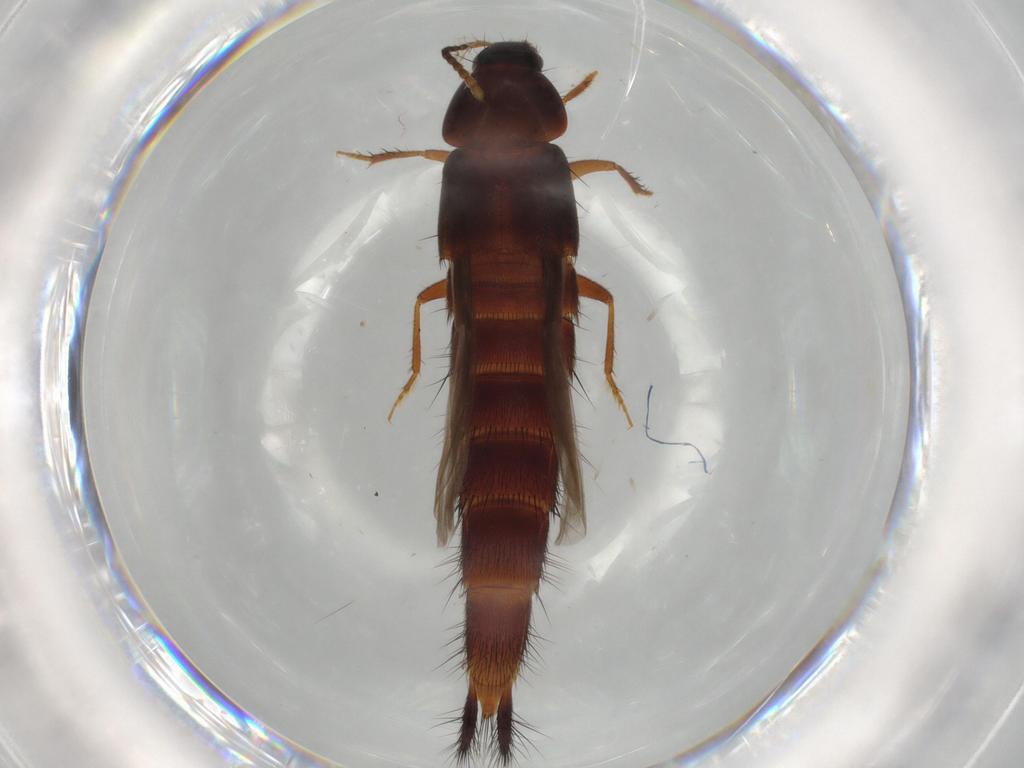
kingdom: Animalia
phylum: Arthropoda
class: Insecta
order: Coleoptera
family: Staphylinidae
